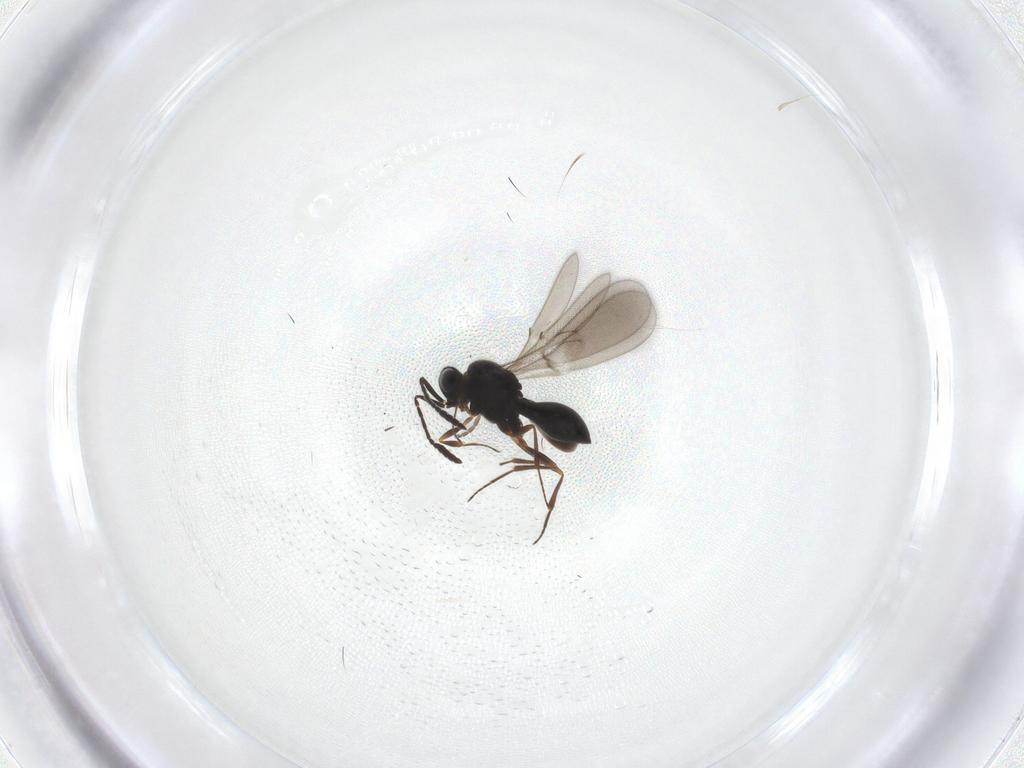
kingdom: Animalia
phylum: Arthropoda
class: Insecta
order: Hymenoptera
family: Scelionidae
